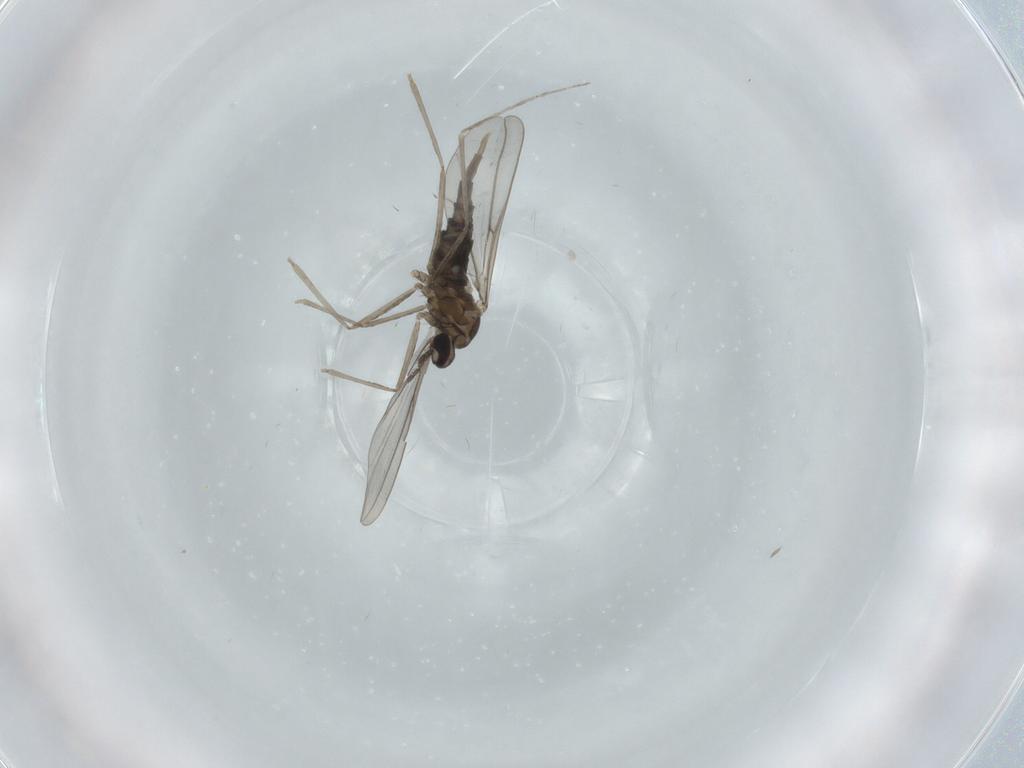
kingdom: Animalia
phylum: Arthropoda
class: Insecta
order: Diptera
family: Cecidomyiidae
